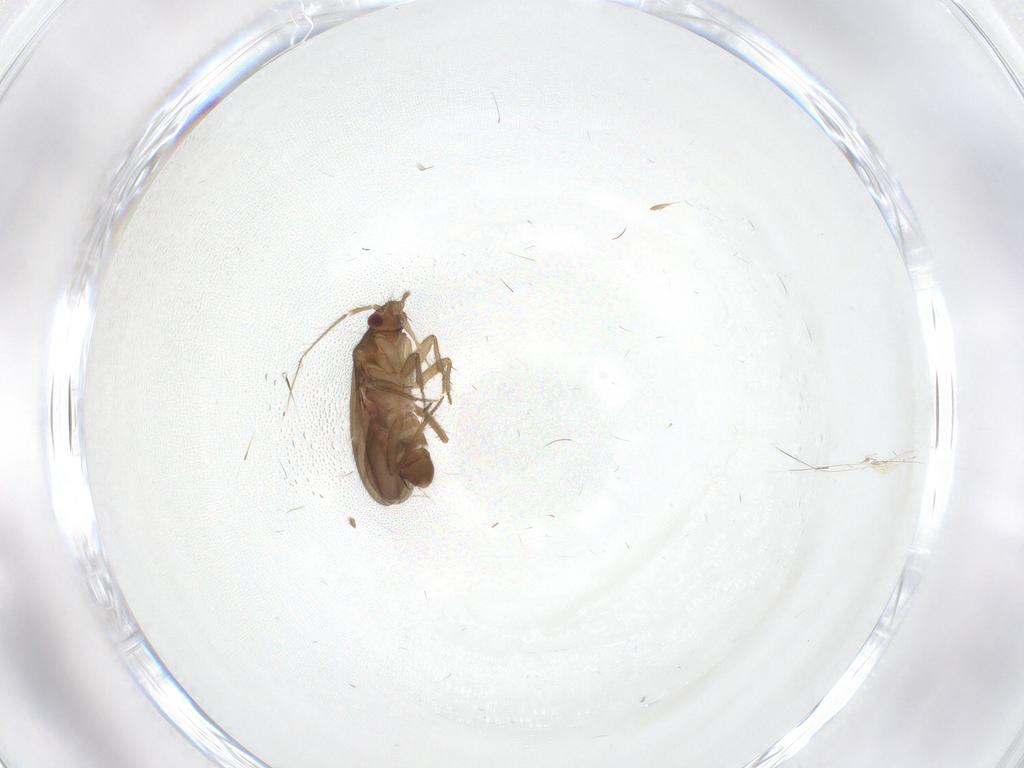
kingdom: Animalia
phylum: Arthropoda
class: Insecta
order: Hemiptera
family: Ceratocombidae
